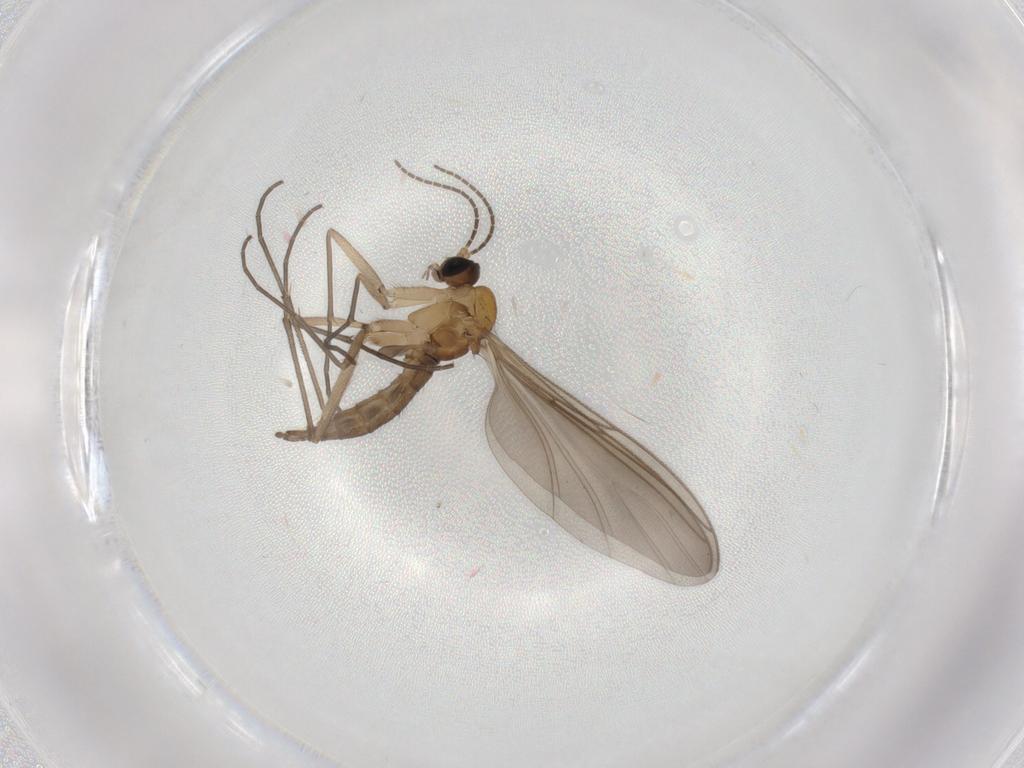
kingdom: Animalia
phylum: Arthropoda
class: Insecta
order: Diptera
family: Sciaridae
